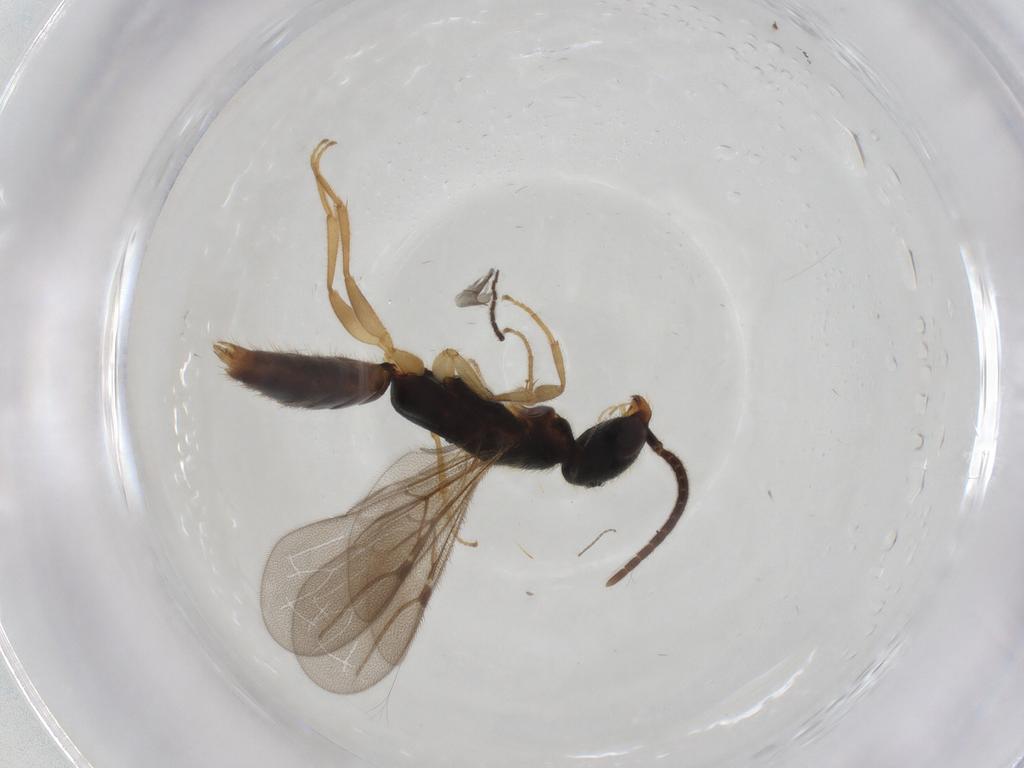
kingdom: Animalia
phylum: Arthropoda
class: Insecta
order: Hymenoptera
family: Bethylidae
